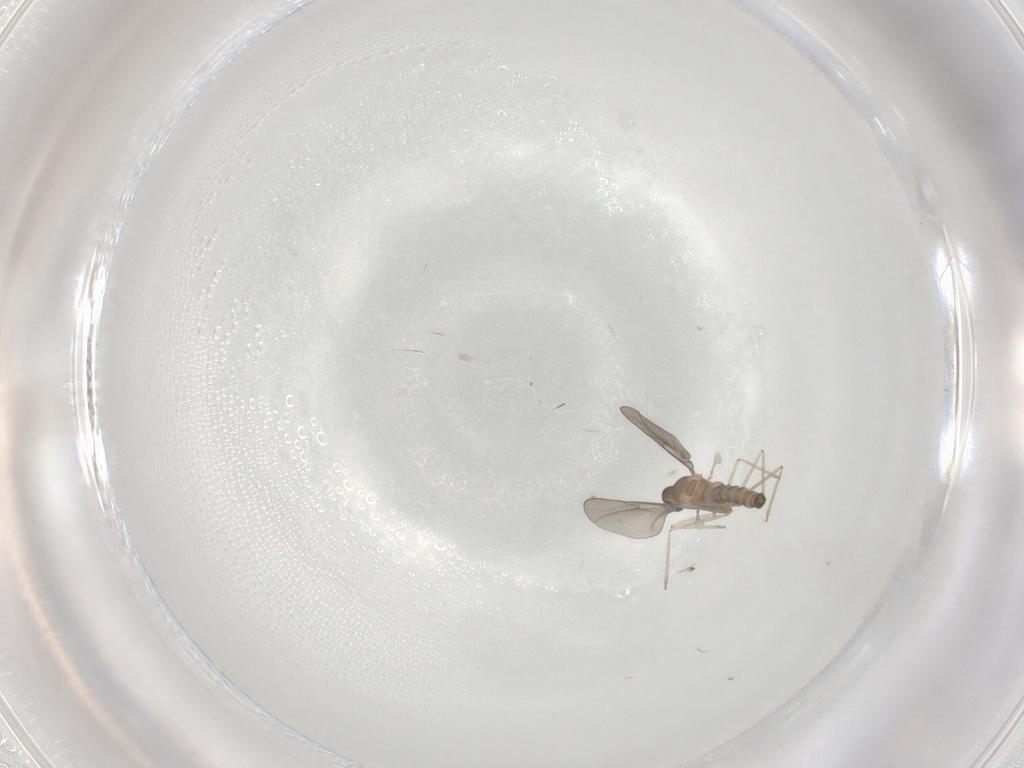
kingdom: Animalia
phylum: Arthropoda
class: Insecta
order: Diptera
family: Cecidomyiidae
